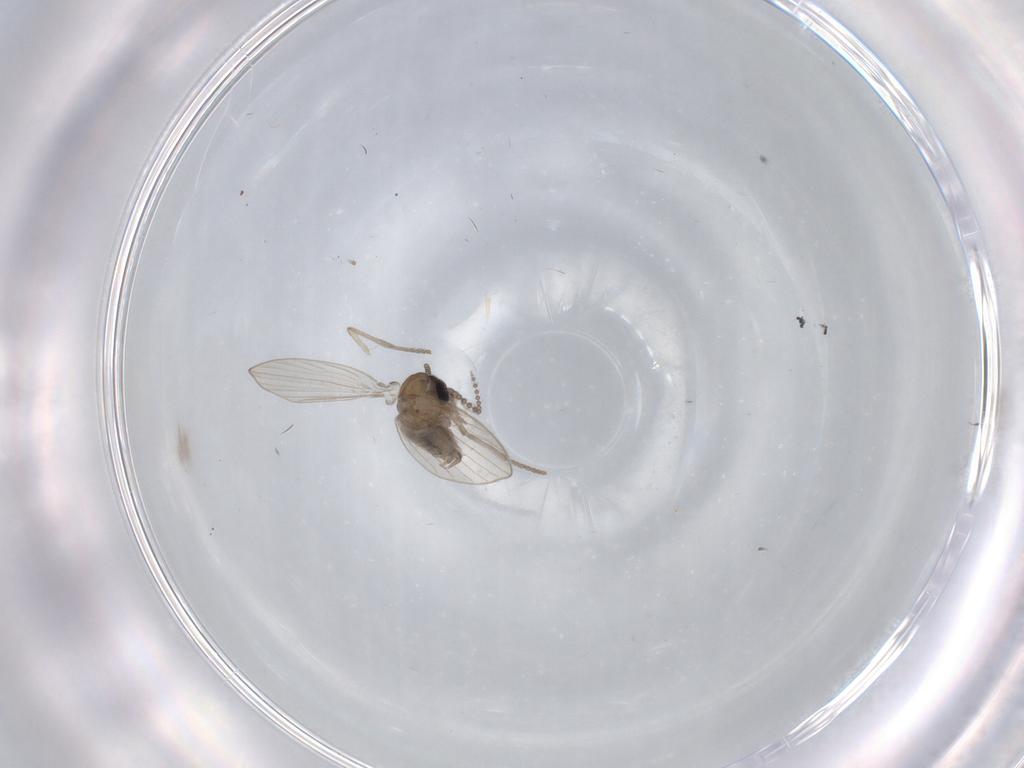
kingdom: Animalia
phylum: Arthropoda
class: Insecta
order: Diptera
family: Psychodidae
